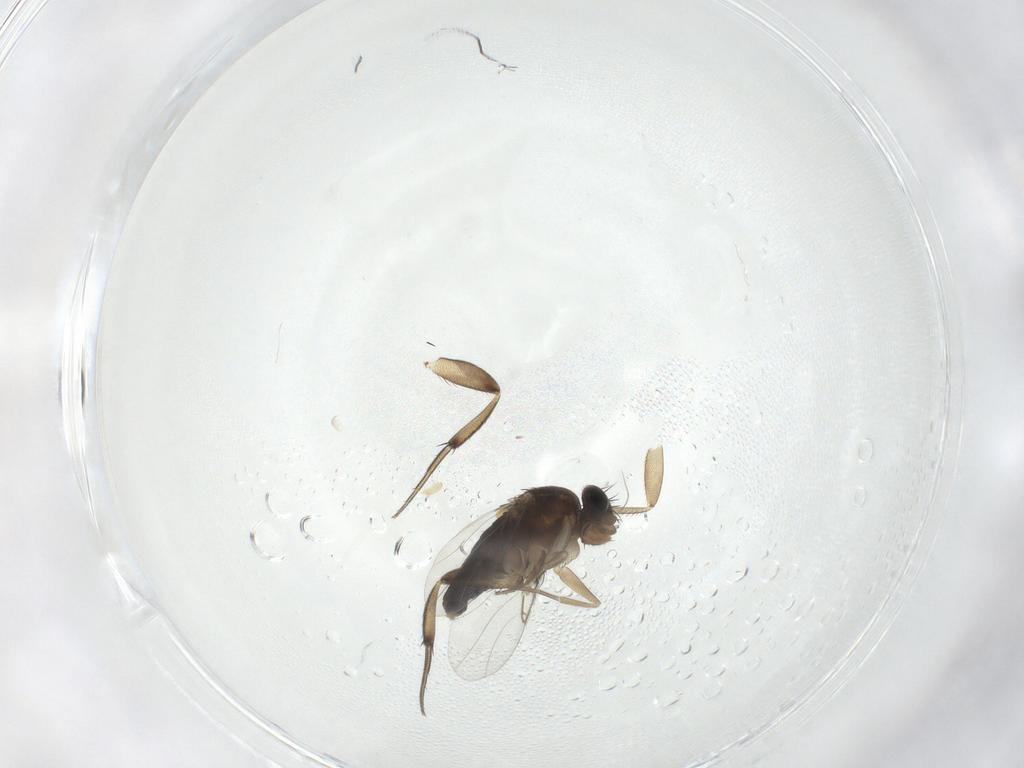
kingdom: Animalia
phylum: Arthropoda
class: Insecta
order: Diptera
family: Phoridae
